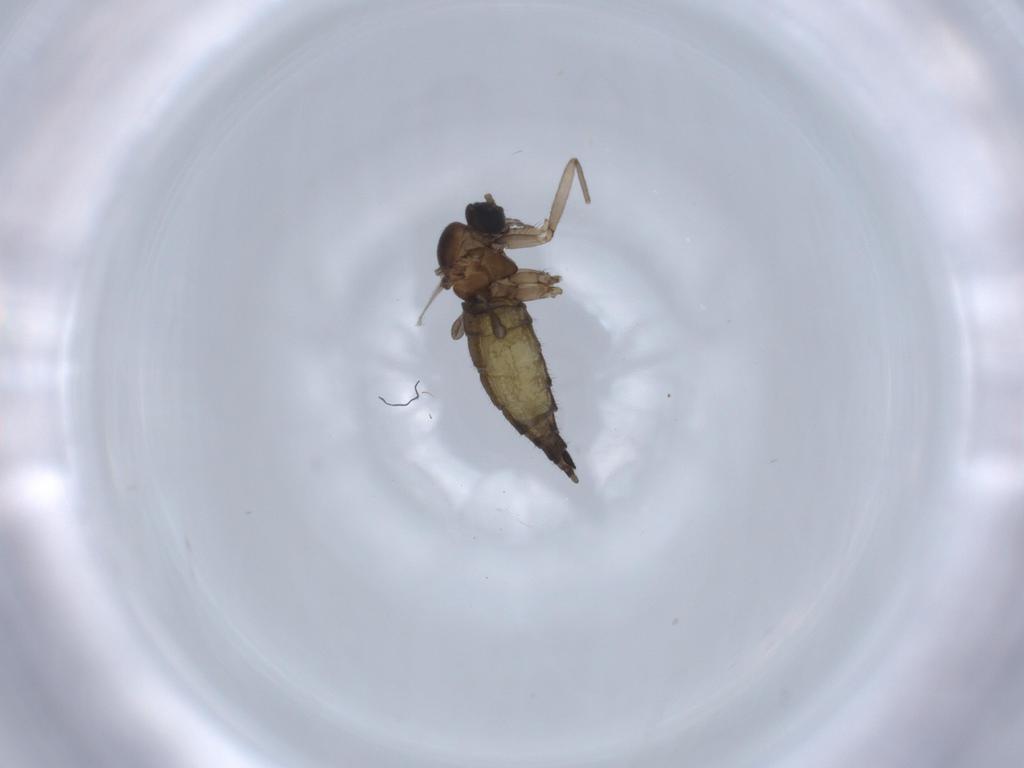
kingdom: Animalia
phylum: Arthropoda
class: Insecta
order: Diptera
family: Sciaridae
